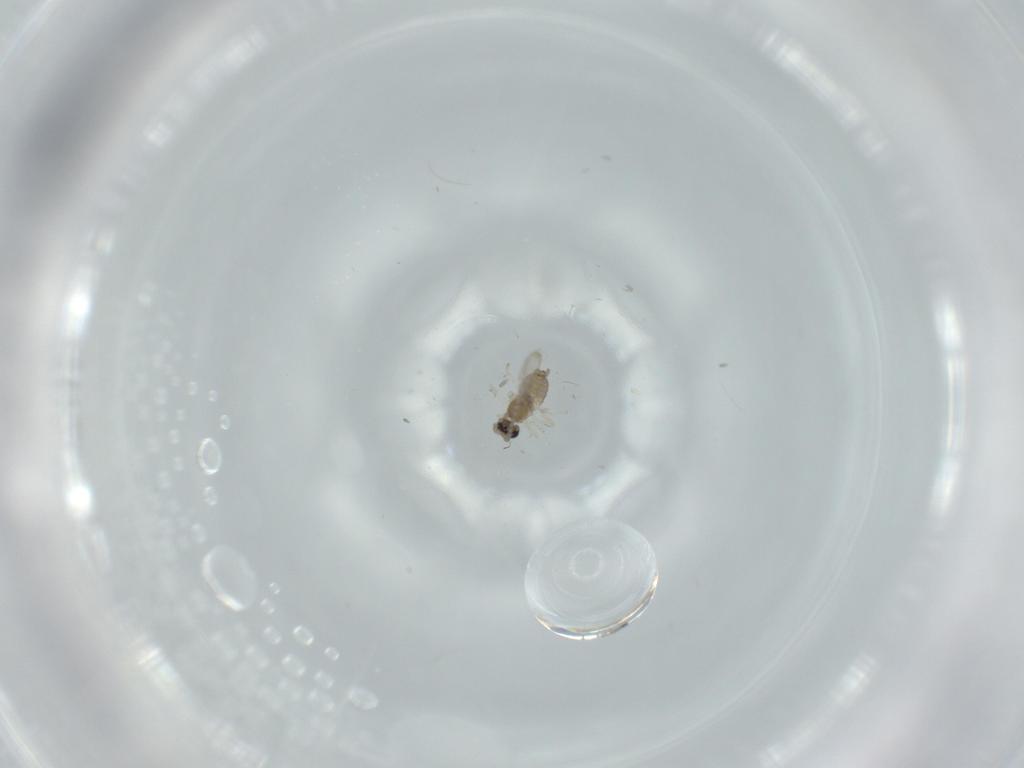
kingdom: Animalia
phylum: Arthropoda
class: Insecta
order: Diptera
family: Cecidomyiidae
